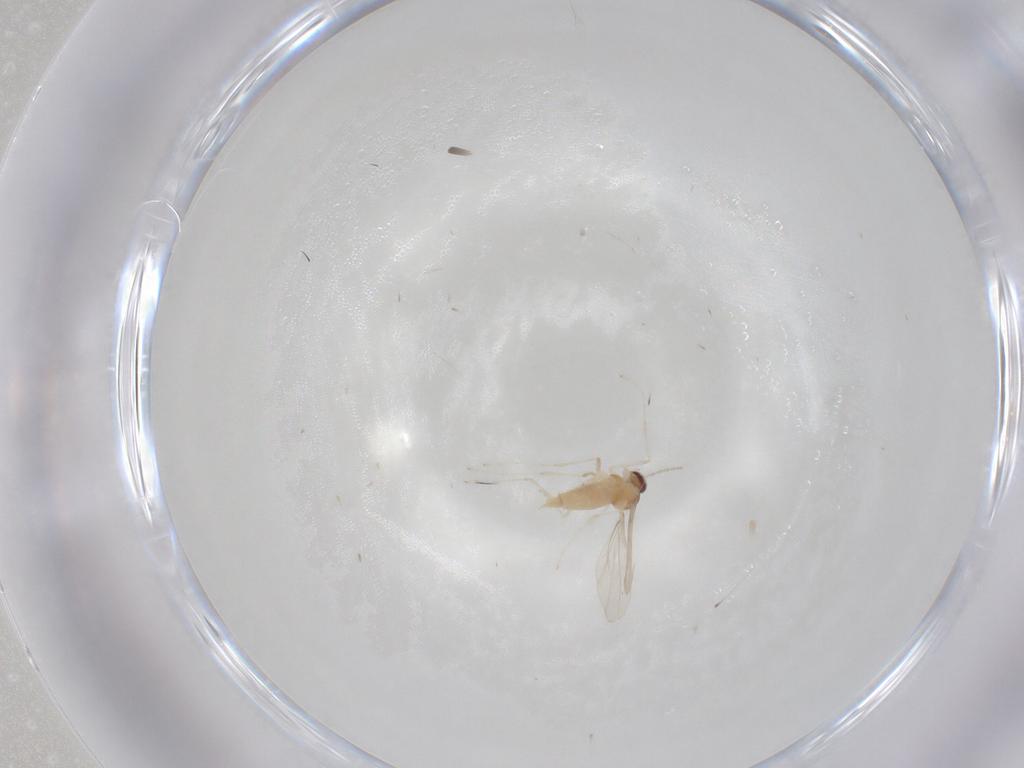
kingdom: Animalia
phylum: Arthropoda
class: Insecta
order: Diptera
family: Cecidomyiidae
